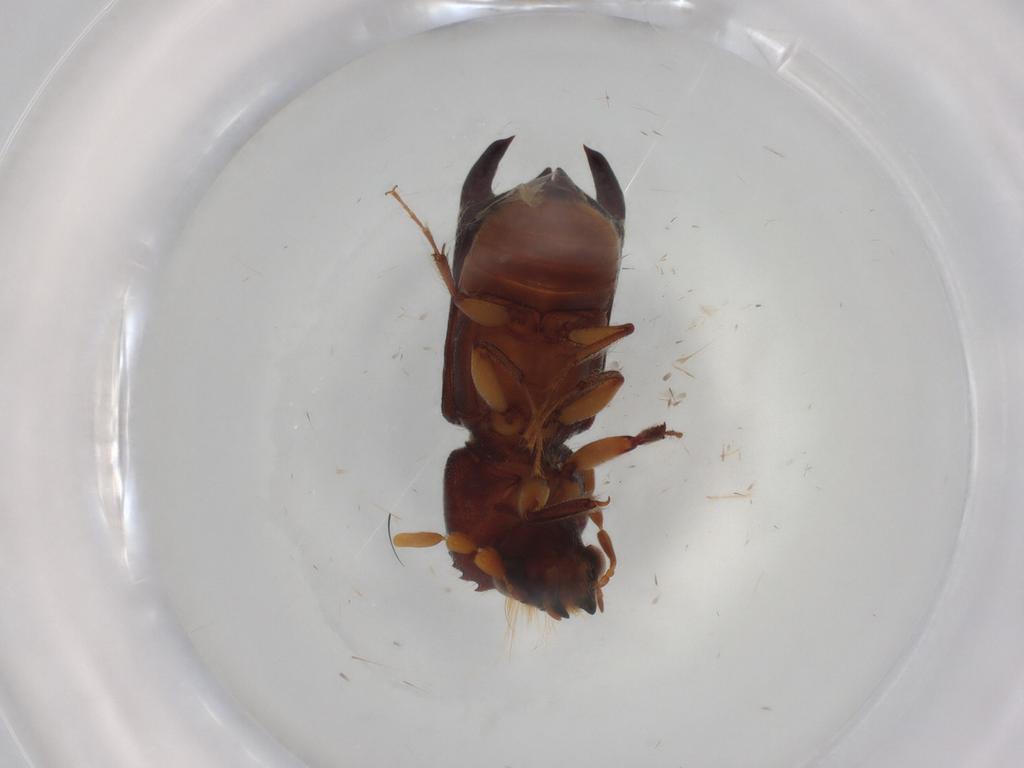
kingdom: Animalia
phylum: Arthropoda
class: Insecta
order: Coleoptera
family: Bostrichidae
